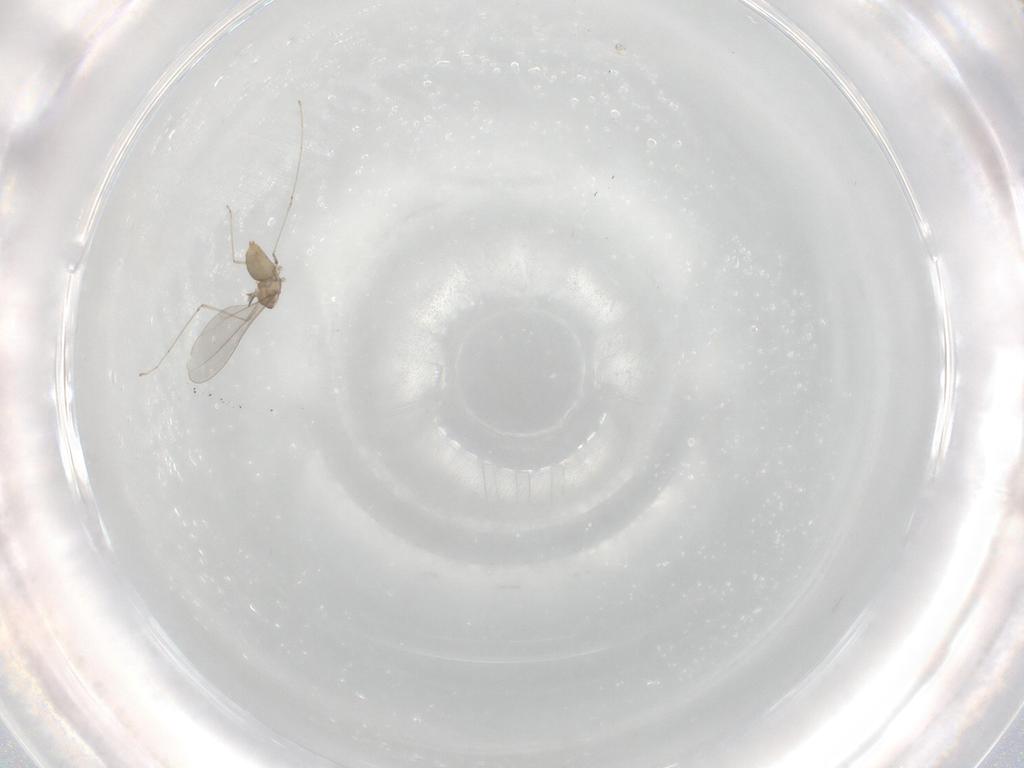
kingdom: Animalia
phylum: Arthropoda
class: Insecta
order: Diptera
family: Cecidomyiidae
